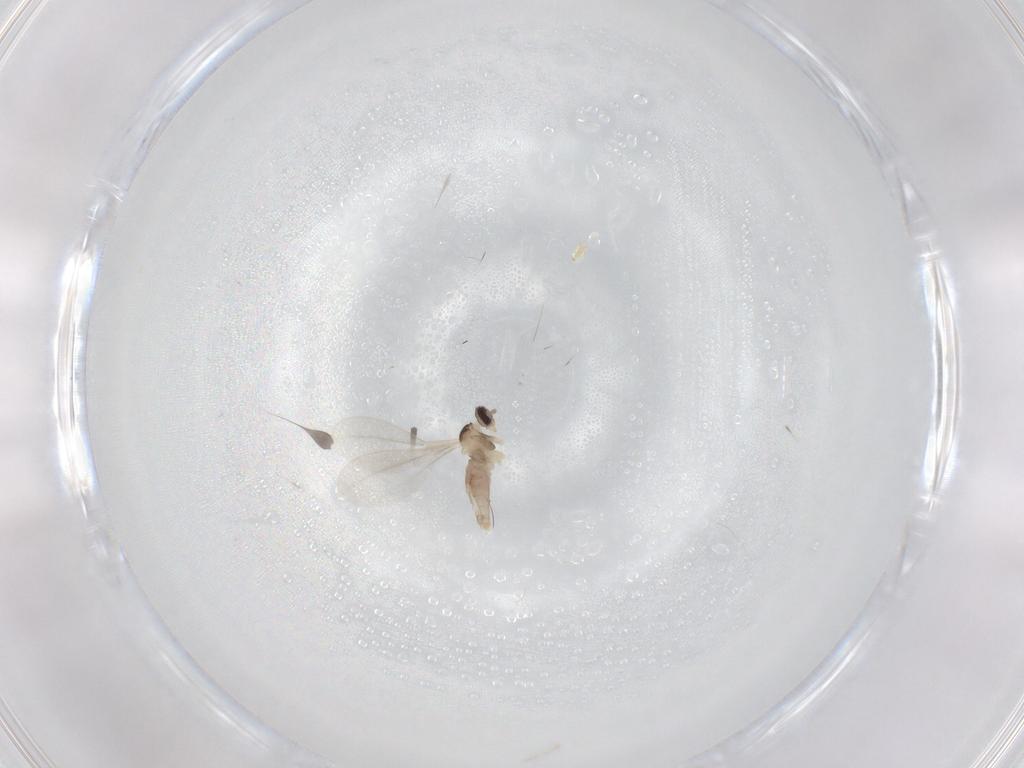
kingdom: Animalia
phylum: Arthropoda
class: Insecta
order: Diptera
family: Cecidomyiidae
